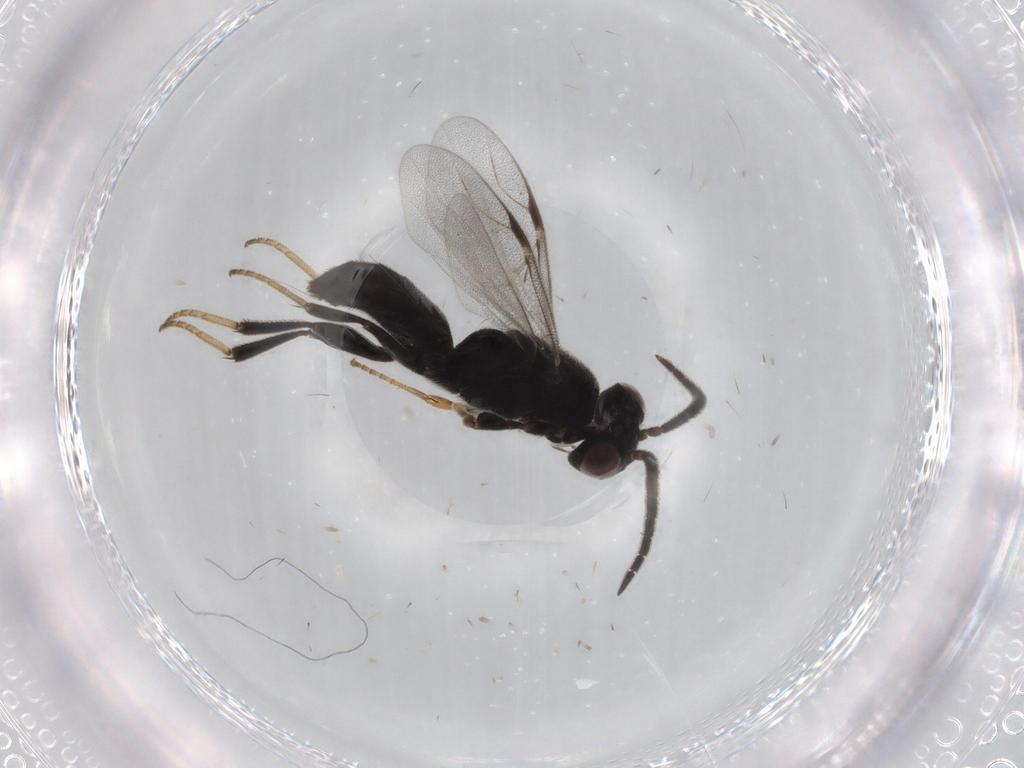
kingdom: Animalia
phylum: Arthropoda
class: Insecta
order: Hymenoptera
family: Dryinidae
